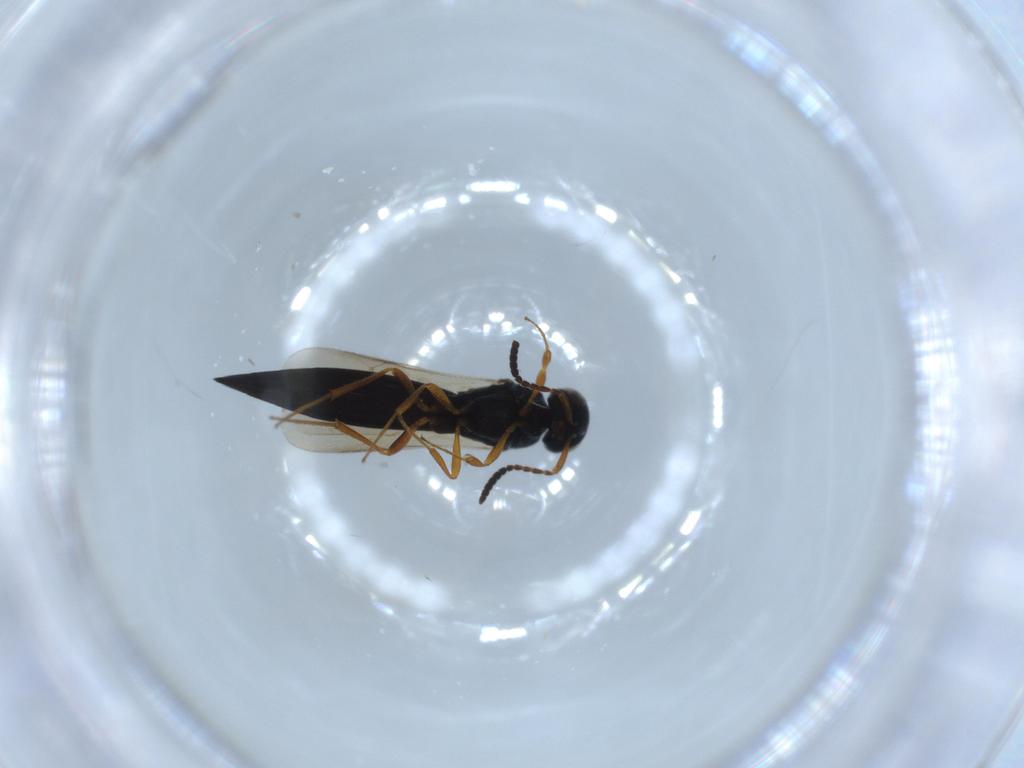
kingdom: Animalia
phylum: Arthropoda
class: Insecta
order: Hymenoptera
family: Scelionidae
